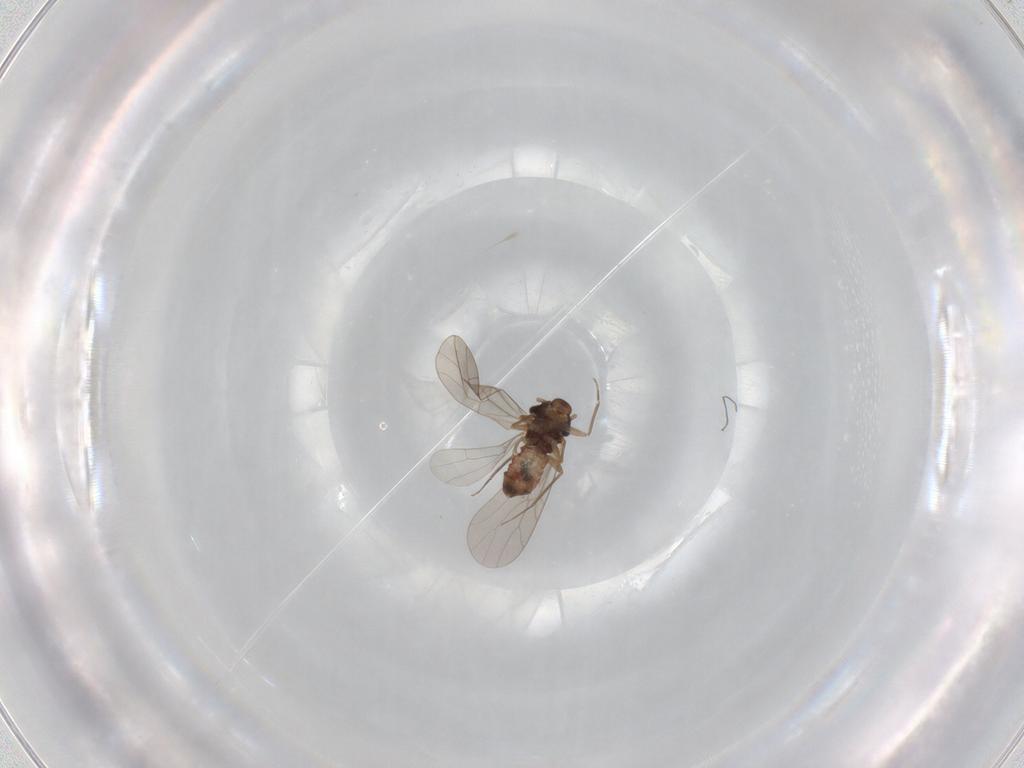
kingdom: Animalia
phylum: Arthropoda
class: Insecta
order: Psocodea
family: Lepidopsocidae
